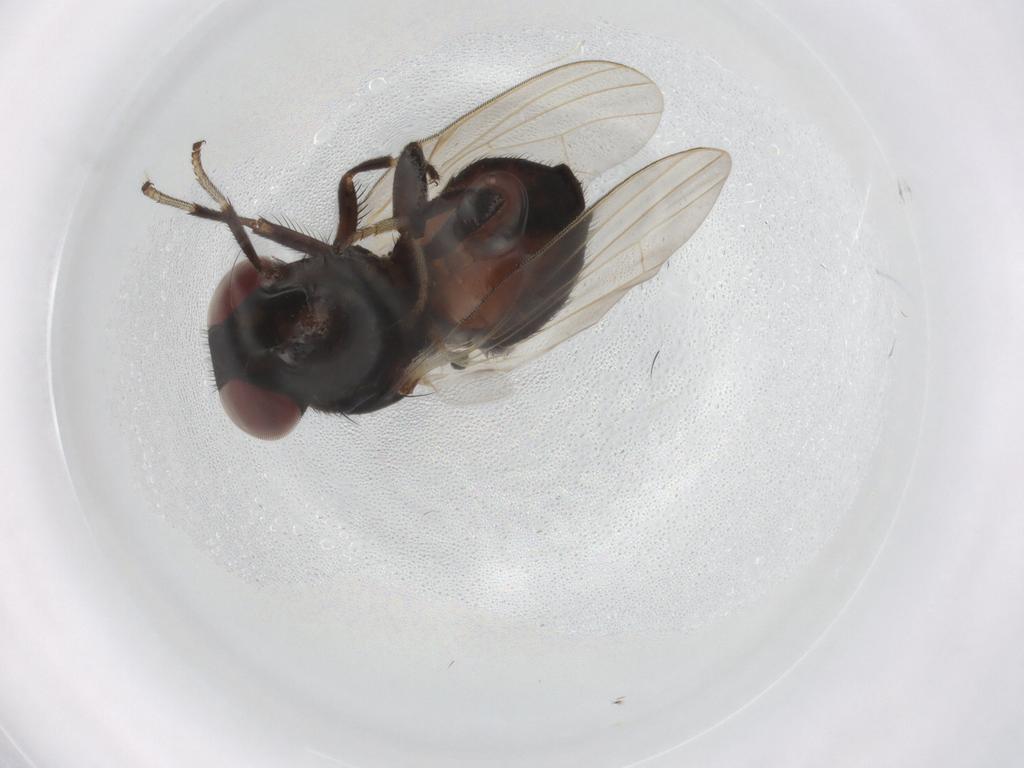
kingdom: Animalia
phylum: Arthropoda
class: Insecta
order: Diptera
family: Lonchaeidae
